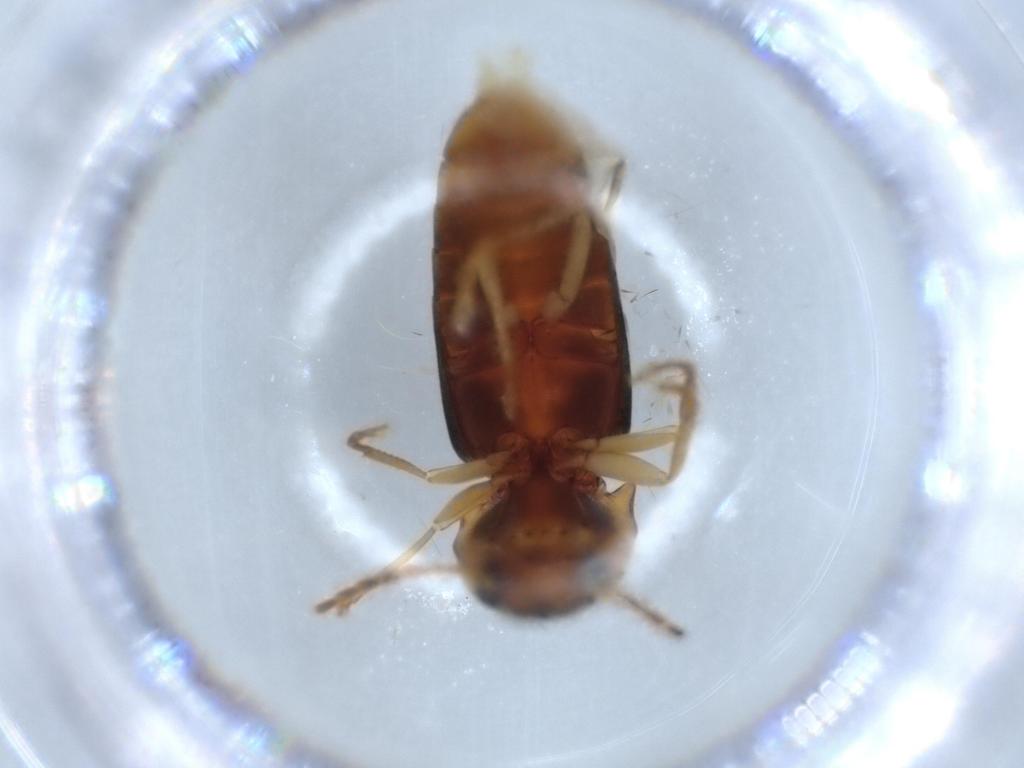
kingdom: Animalia
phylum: Arthropoda
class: Insecta
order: Coleoptera
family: Elateridae
